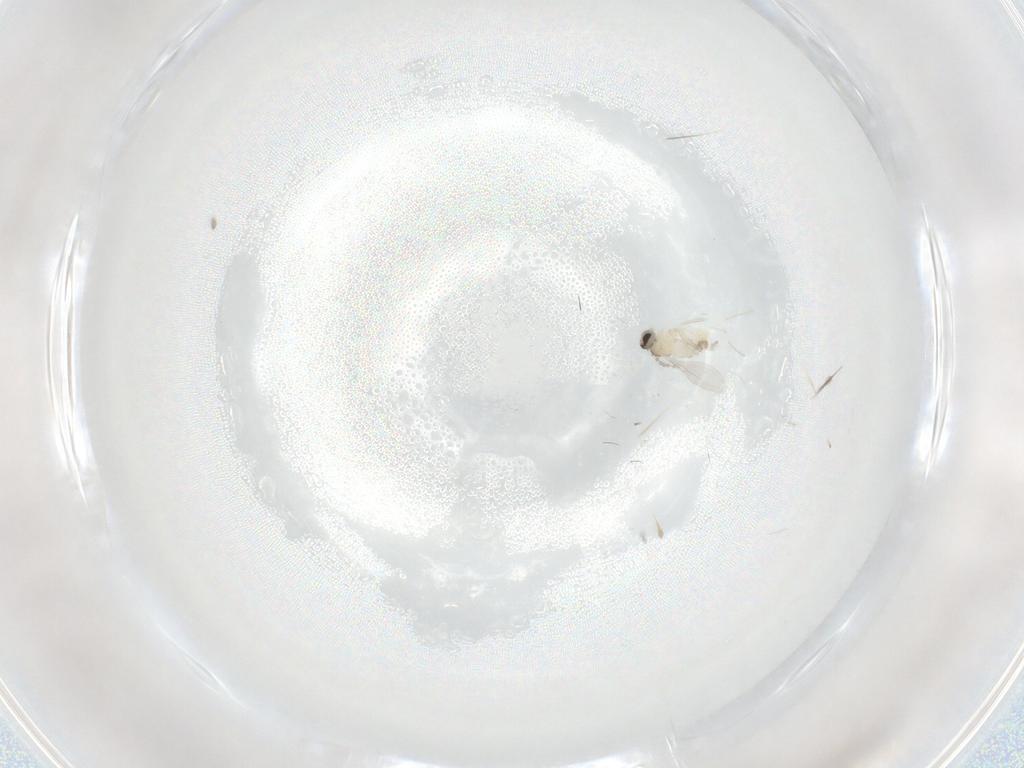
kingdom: Animalia
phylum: Arthropoda
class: Insecta
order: Diptera
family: Cecidomyiidae
